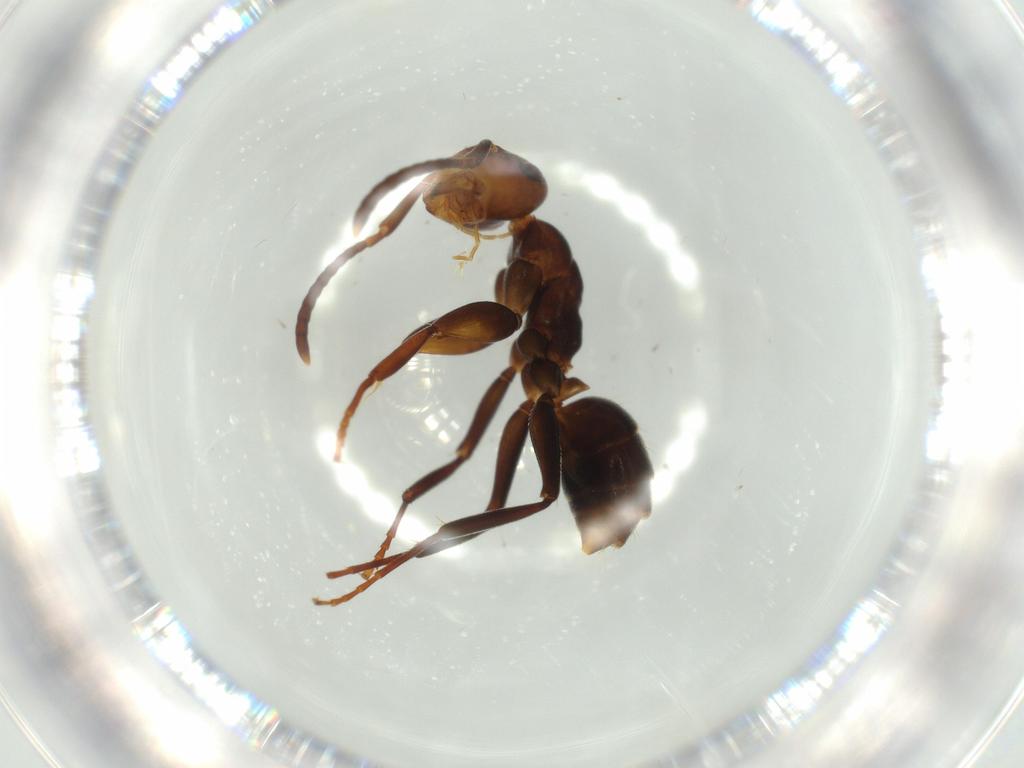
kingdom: Animalia
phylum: Arthropoda
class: Insecta
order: Hymenoptera
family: Formicidae
